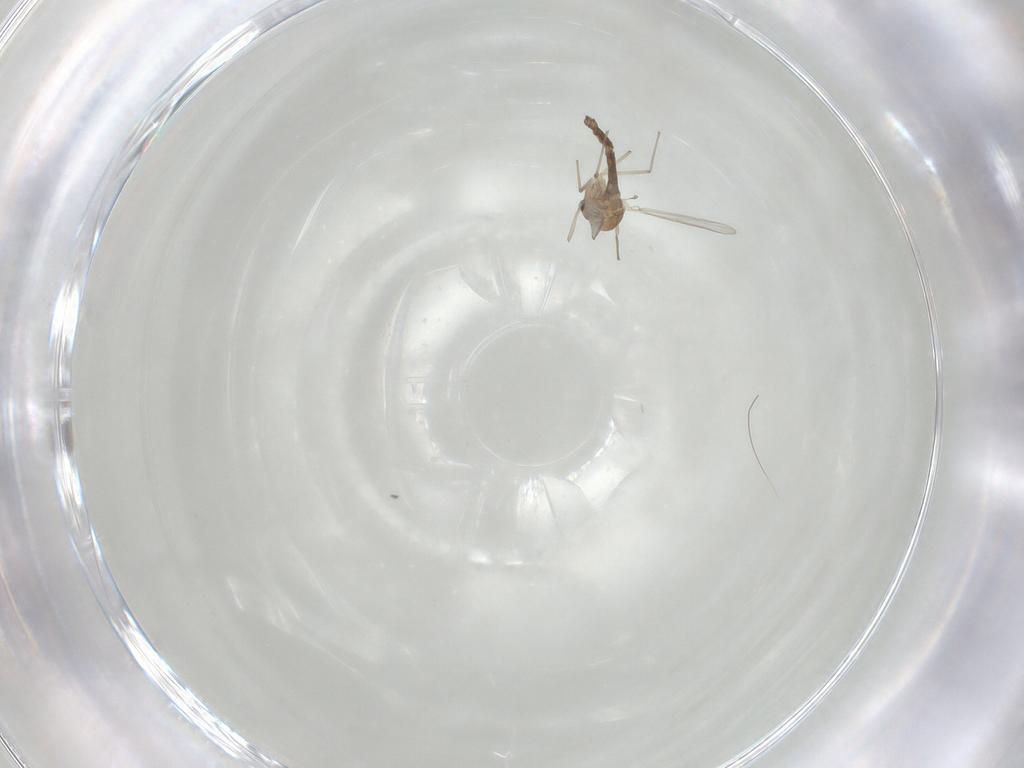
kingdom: Animalia
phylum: Arthropoda
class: Insecta
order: Diptera
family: Chironomidae
